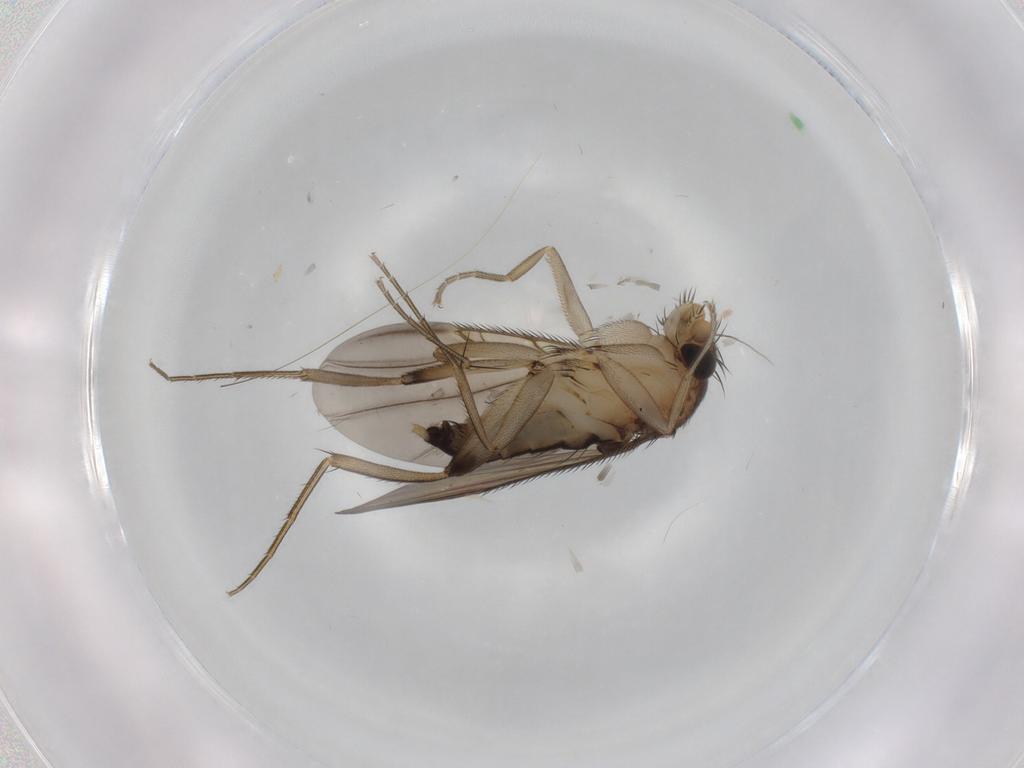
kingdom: Animalia
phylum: Arthropoda
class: Insecta
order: Diptera
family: Phoridae
